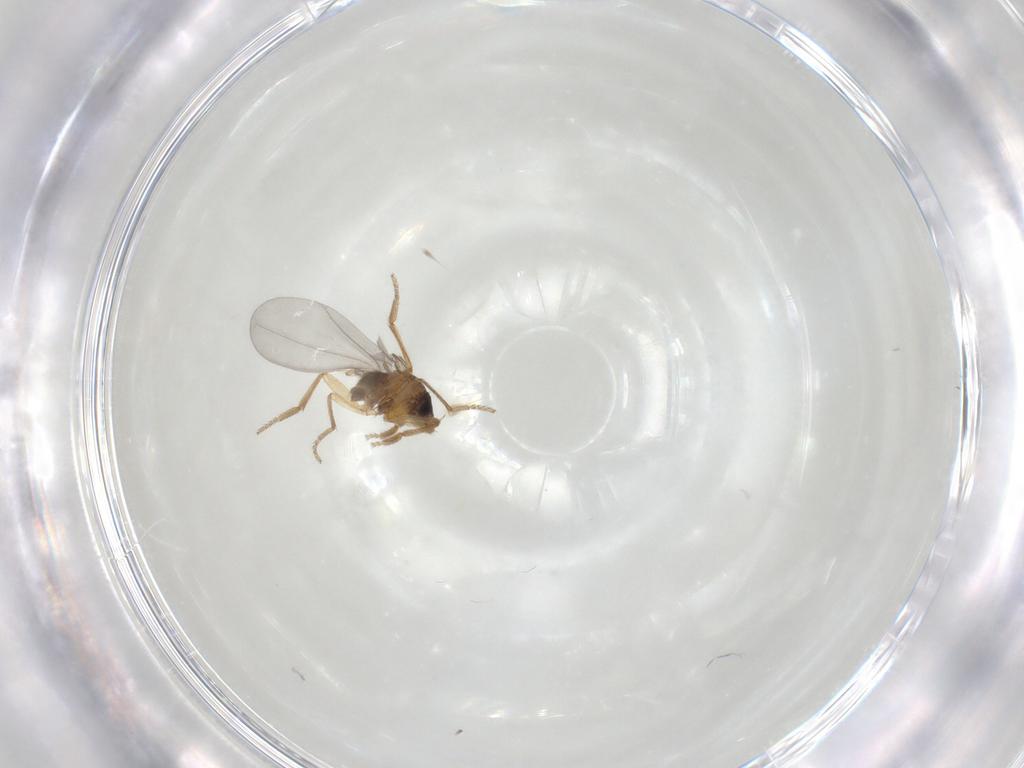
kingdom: Animalia
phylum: Arthropoda
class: Insecta
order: Diptera
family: Phoridae
